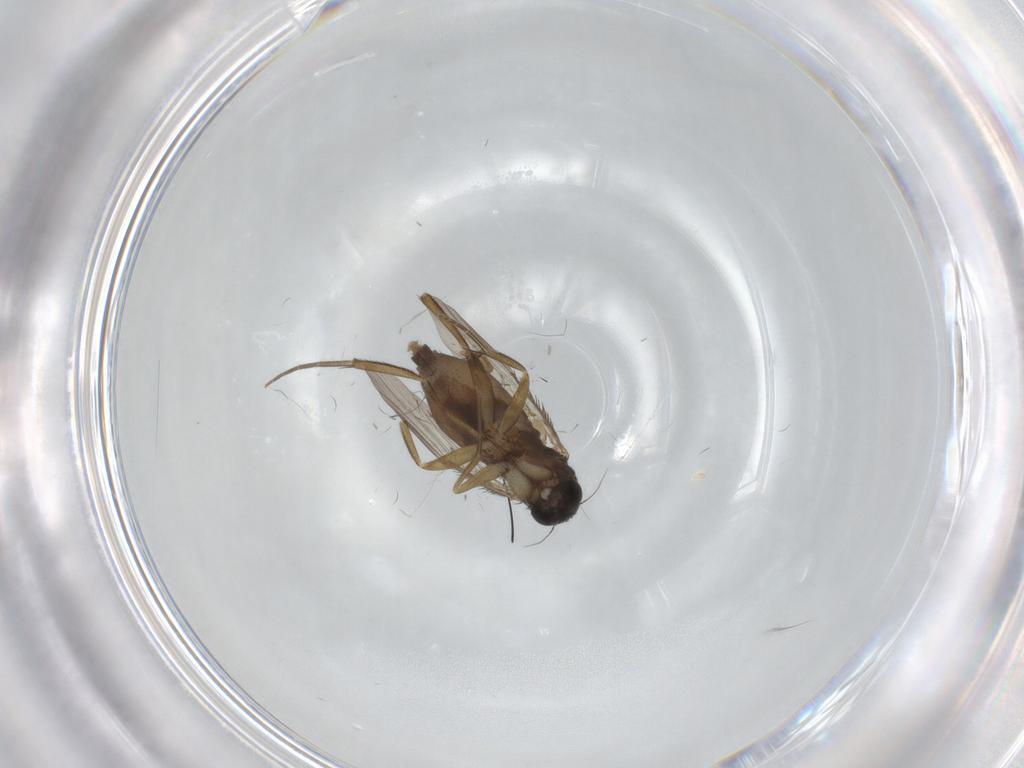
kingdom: Animalia
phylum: Arthropoda
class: Insecta
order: Diptera
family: Phoridae
